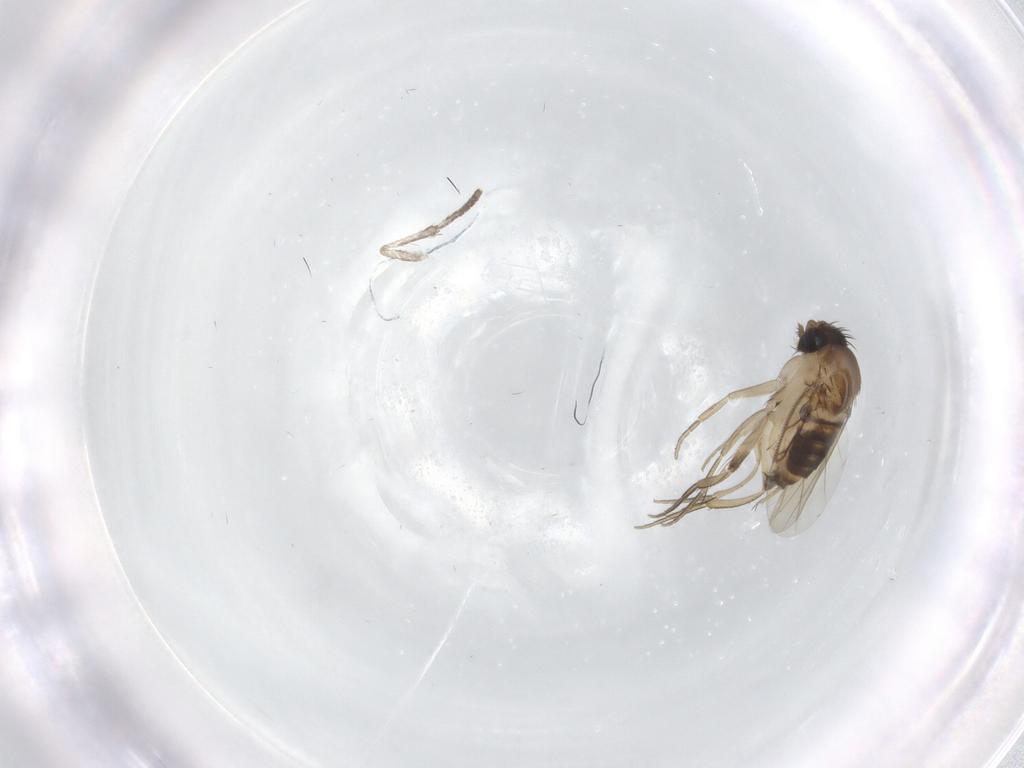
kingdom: Animalia
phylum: Arthropoda
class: Insecta
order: Diptera
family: Phoridae
